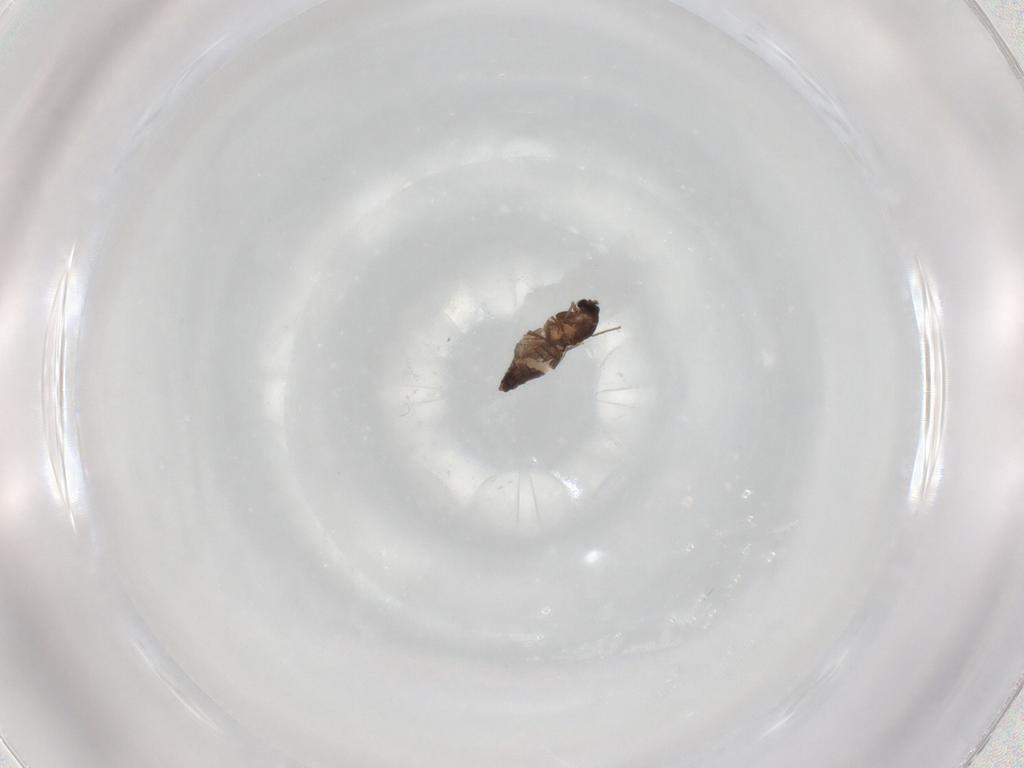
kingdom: Animalia
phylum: Arthropoda
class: Insecta
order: Diptera
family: Chironomidae
